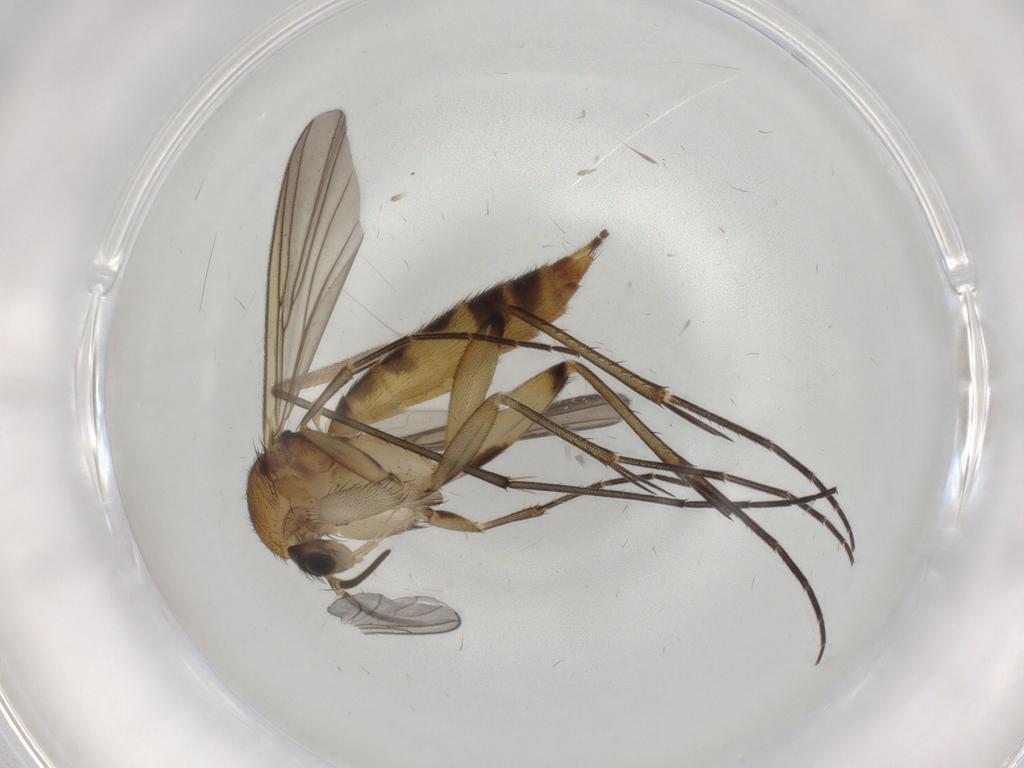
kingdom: Animalia
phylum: Arthropoda
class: Insecta
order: Diptera
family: Mycetophilidae
